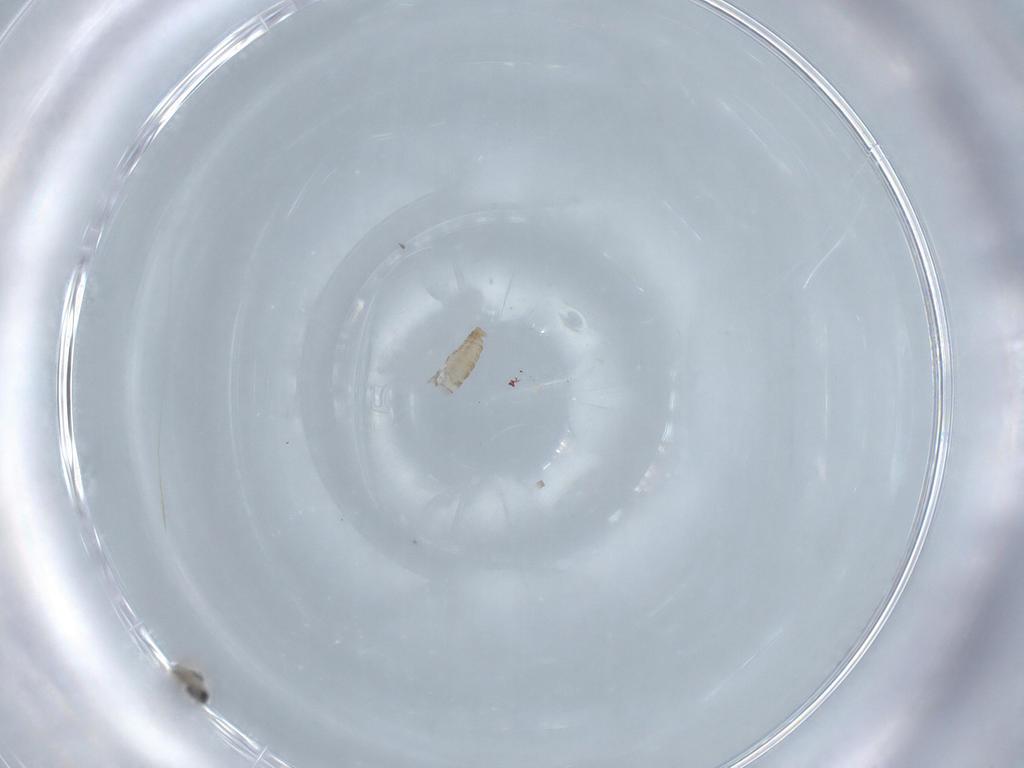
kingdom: Animalia
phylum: Arthropoda
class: Insecta
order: Diptera
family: Cecidomyiidae
